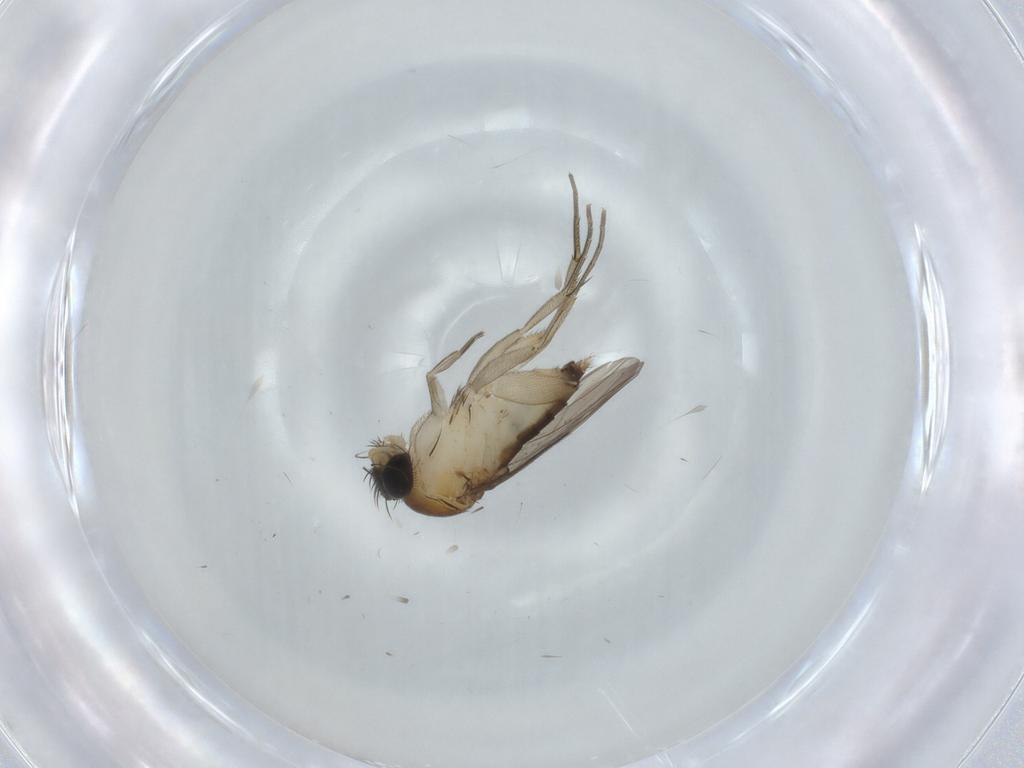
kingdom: Animalia
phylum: Arthropoda
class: Insecta
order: Diptera
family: Phoridae
